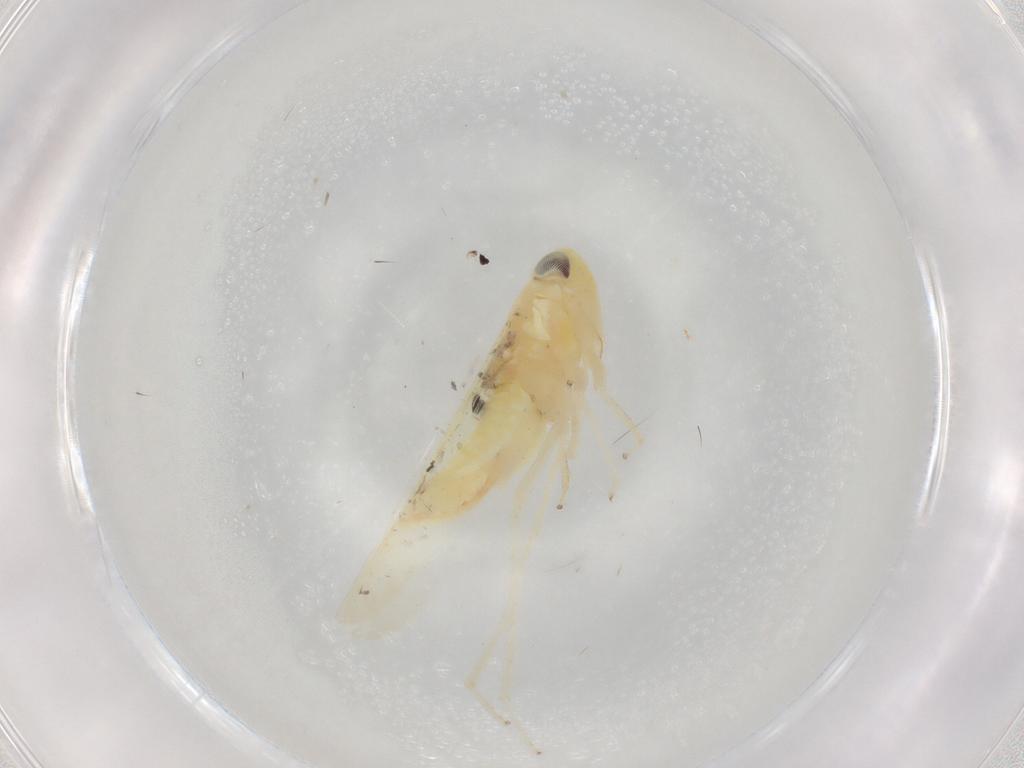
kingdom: Animalia
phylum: Arthropoda
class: Insecta
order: Hemiptera
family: Cicadellidae
